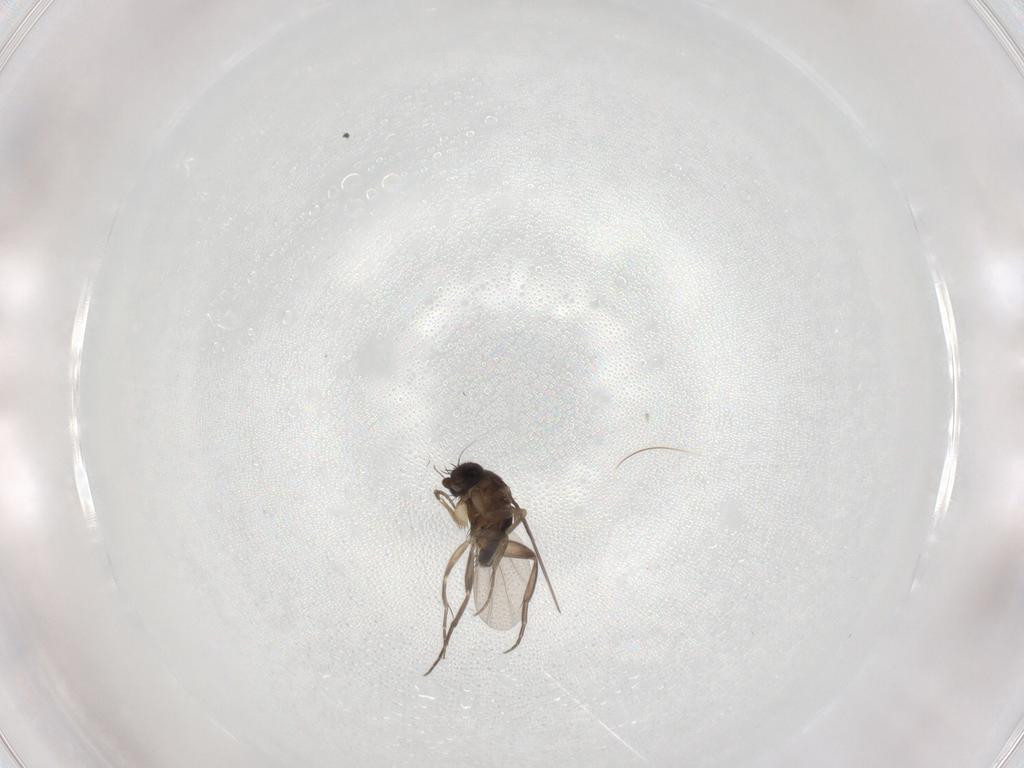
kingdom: Animalia
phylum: Arthropoda
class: Insecta
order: Diptera
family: Phoridae
